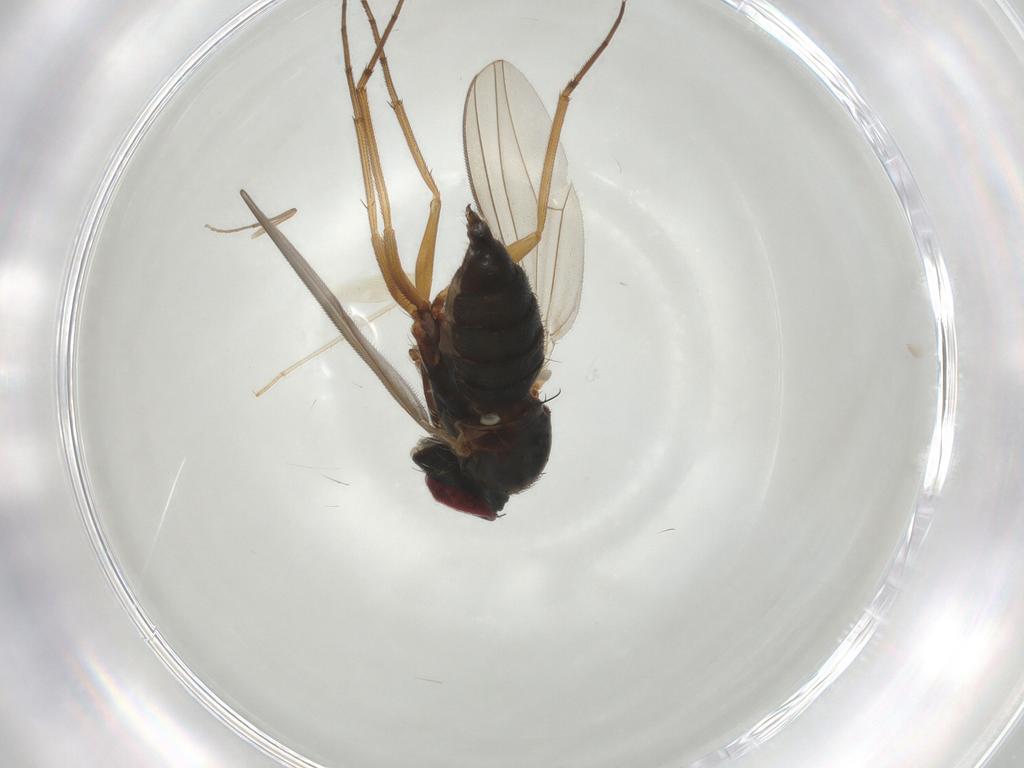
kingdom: Animalia
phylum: Arthropoda
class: Insecta
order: Diptera
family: Dolichopodidae
